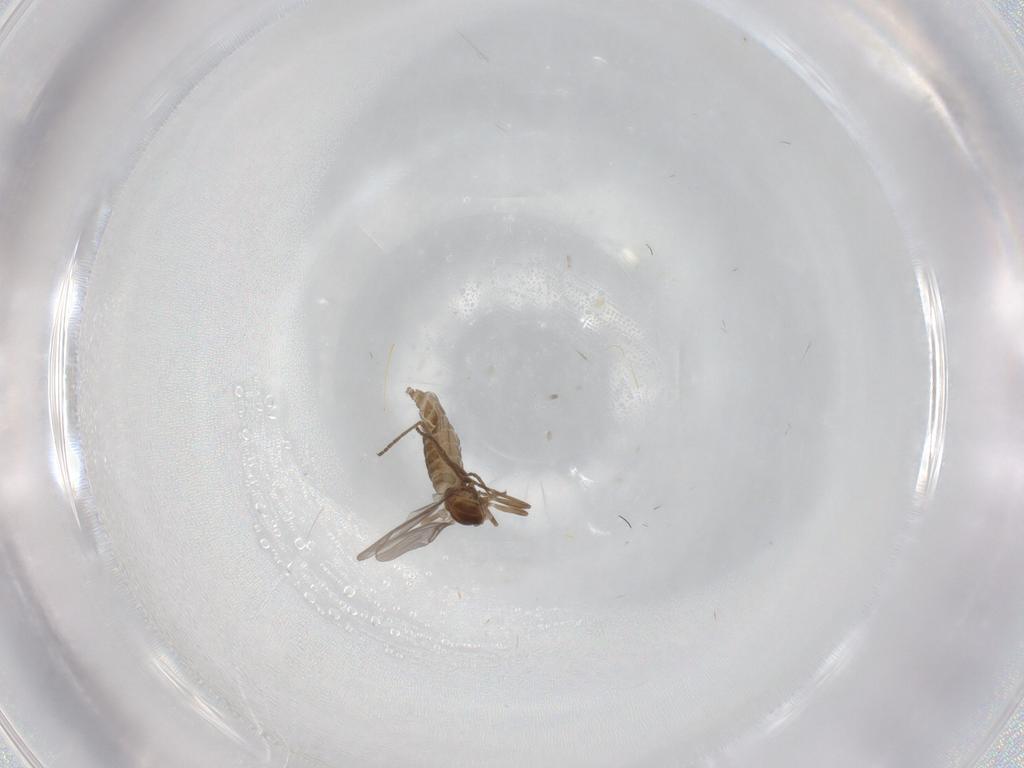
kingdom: Animalia
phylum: Arthropoda
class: Insecta
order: Diptera
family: Cecidomyiidae
